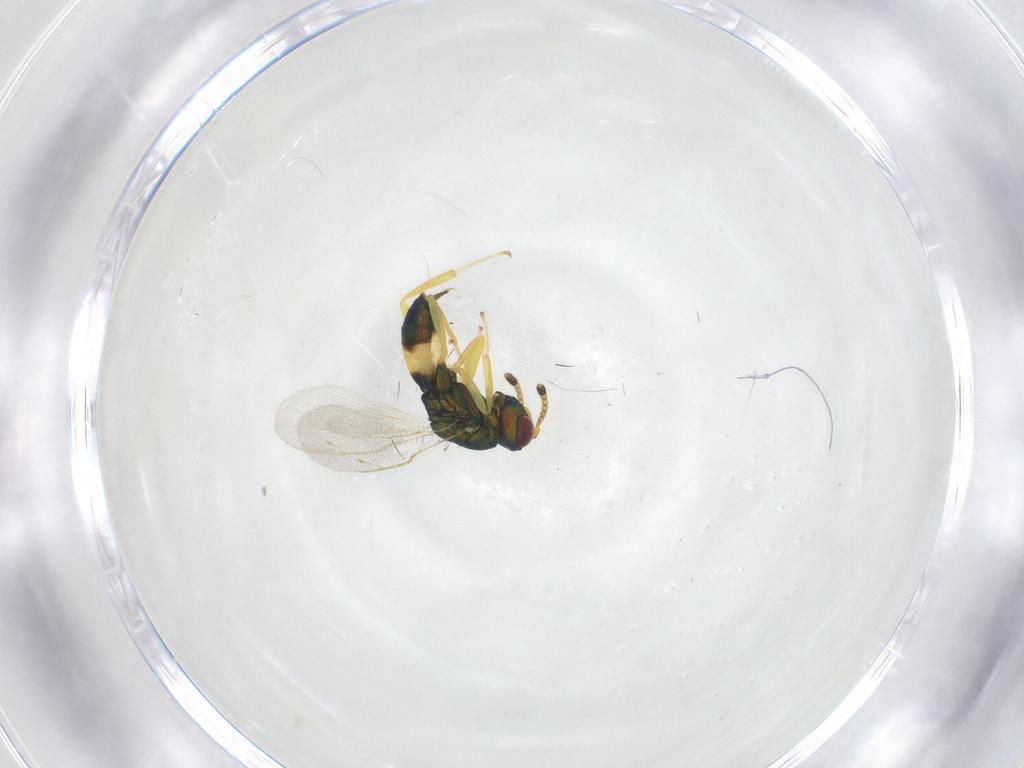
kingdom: Animalia
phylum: Arthropoda
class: Insecta
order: Hymenoptera
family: Pteromalidae
